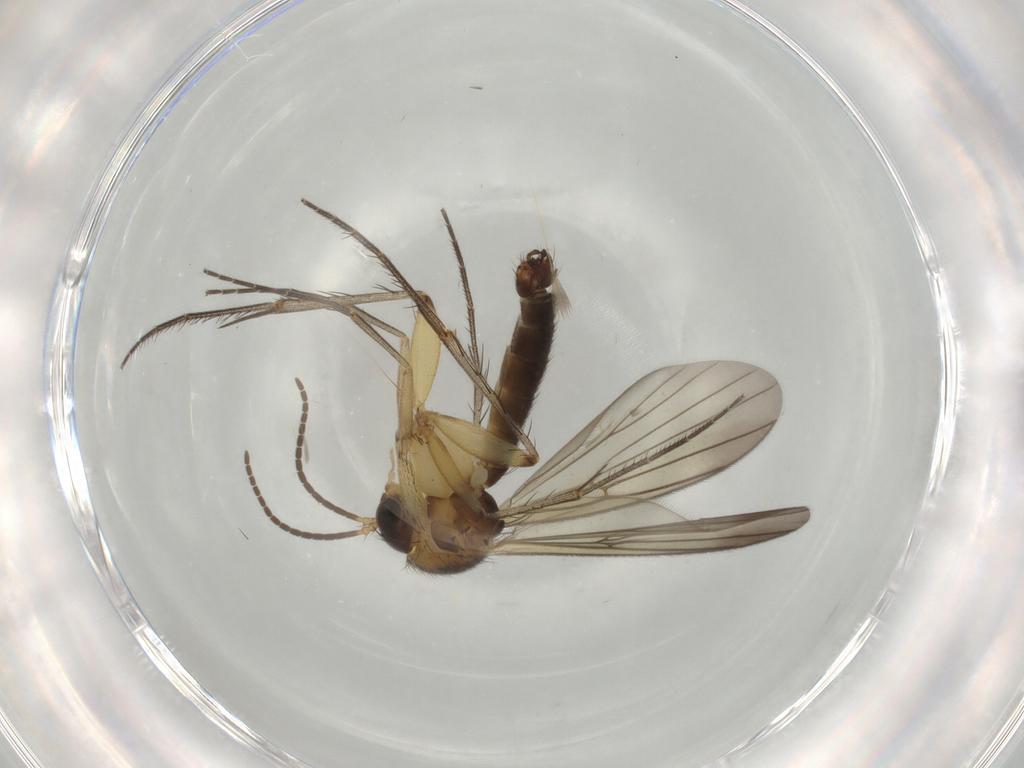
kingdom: Animalia
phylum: Arthropoda
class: Insecta
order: Diptera
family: Mycetophilidae
